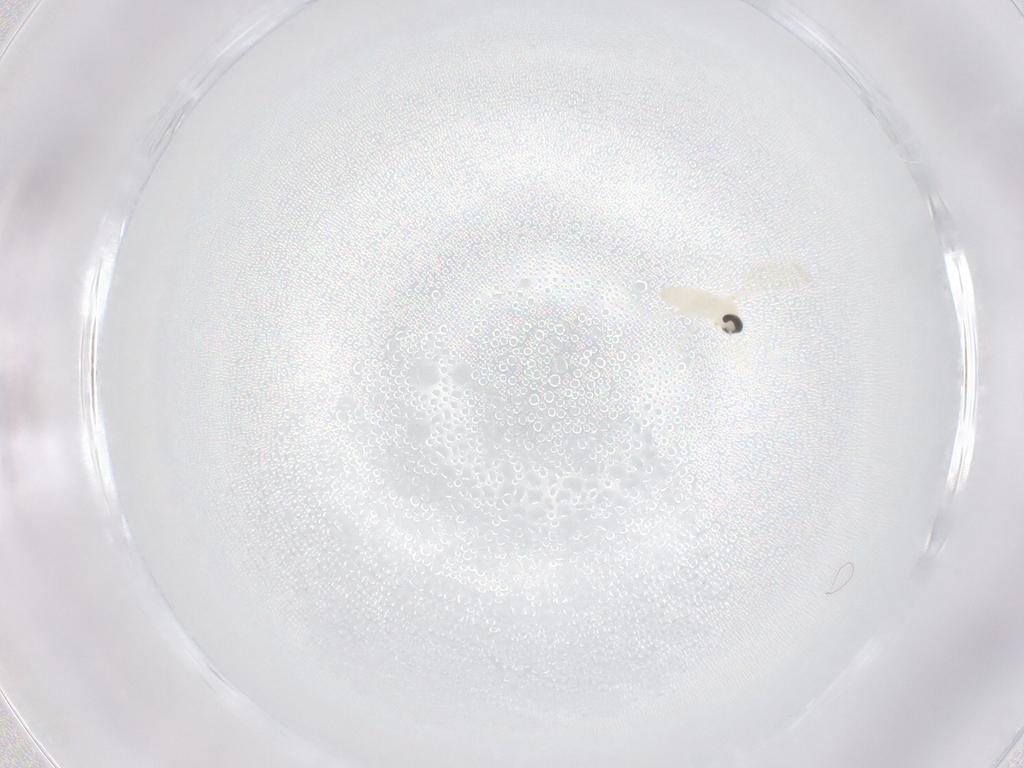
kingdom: Animalia
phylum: Arthropoda
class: Insecta
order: Diptera
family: Cecidomyiidae
